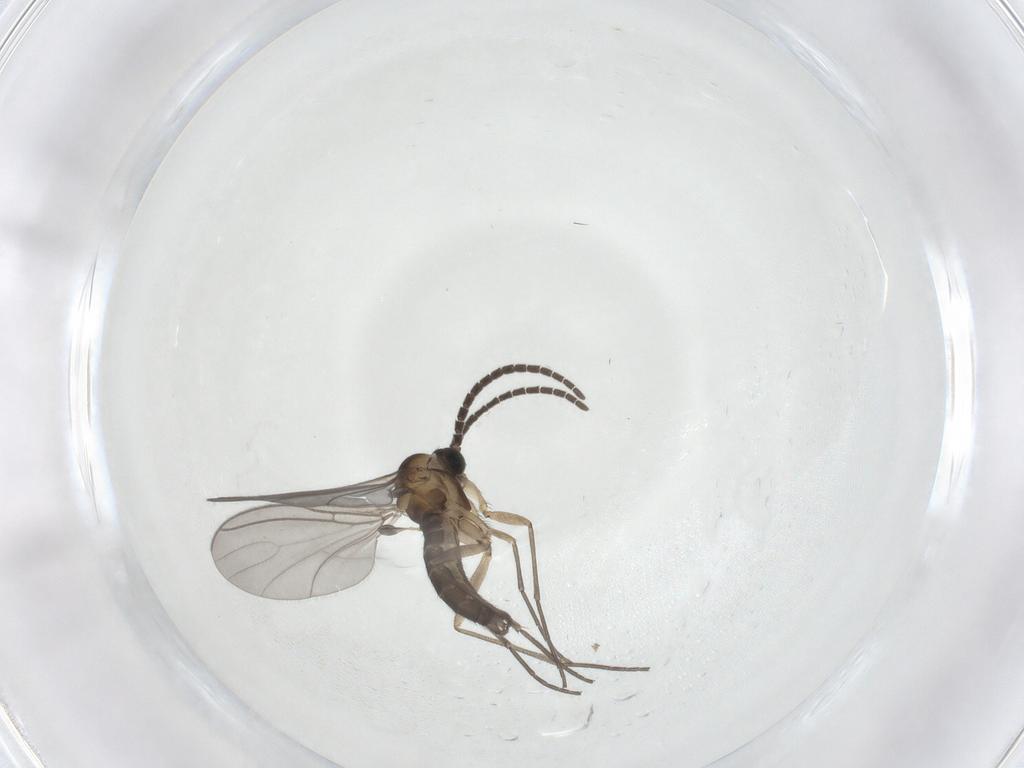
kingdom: Animalia
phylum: Arthropoda
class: Insecta
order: Diptera
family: Sciaridae
